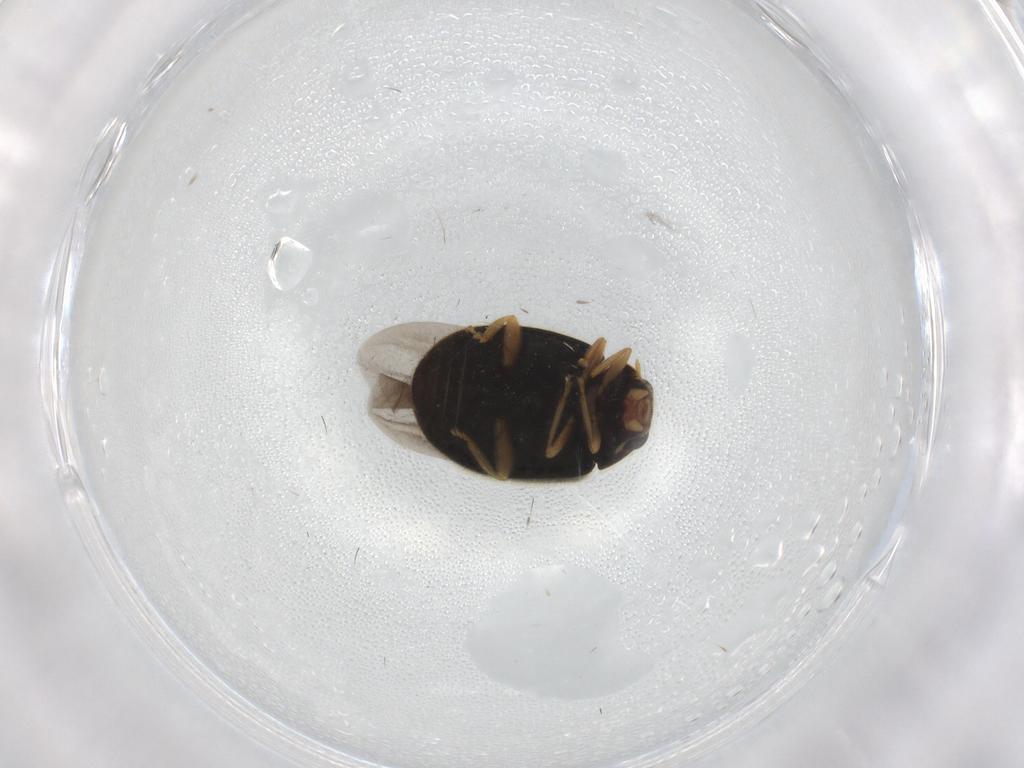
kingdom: Animalia
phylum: Arthropoda
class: Insecta
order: Coleoptera
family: Coccinellidae
